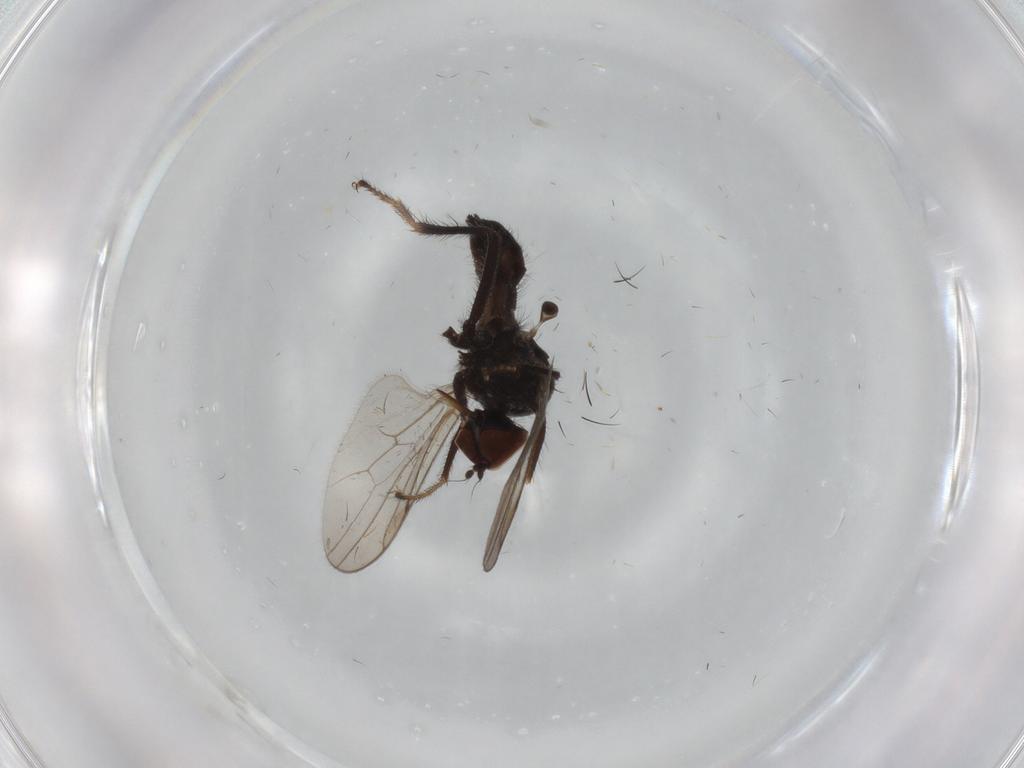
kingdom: Animalia
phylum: Arthropoda
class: Insecta
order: Diptera
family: Hybotidae
